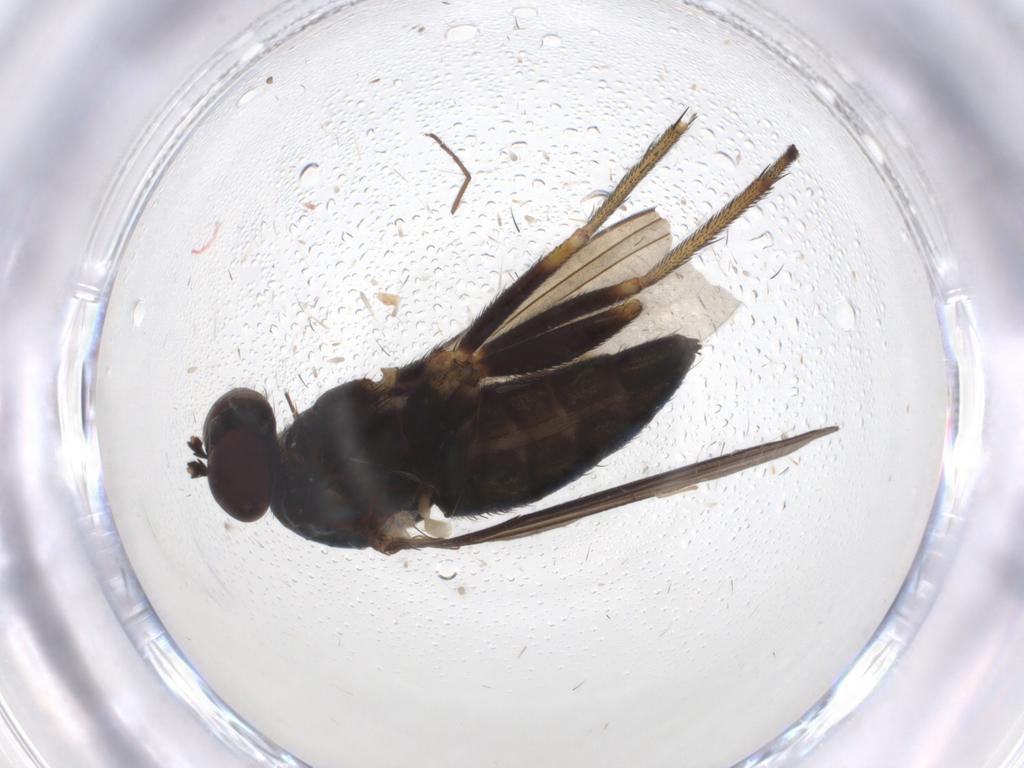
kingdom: Animalia
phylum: Arthropoda
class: Insecta
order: Diptera
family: Dolichopodidae
